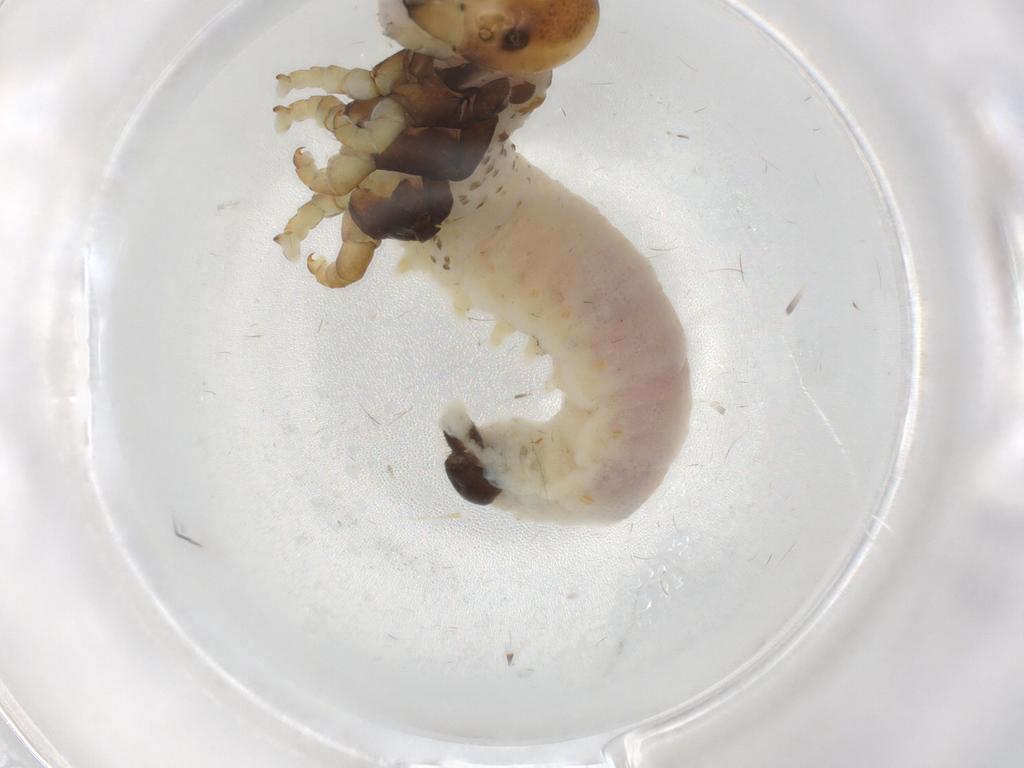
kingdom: Animalia
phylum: Arthropoda
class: Insecta
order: Hymenoptera
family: Argidae
